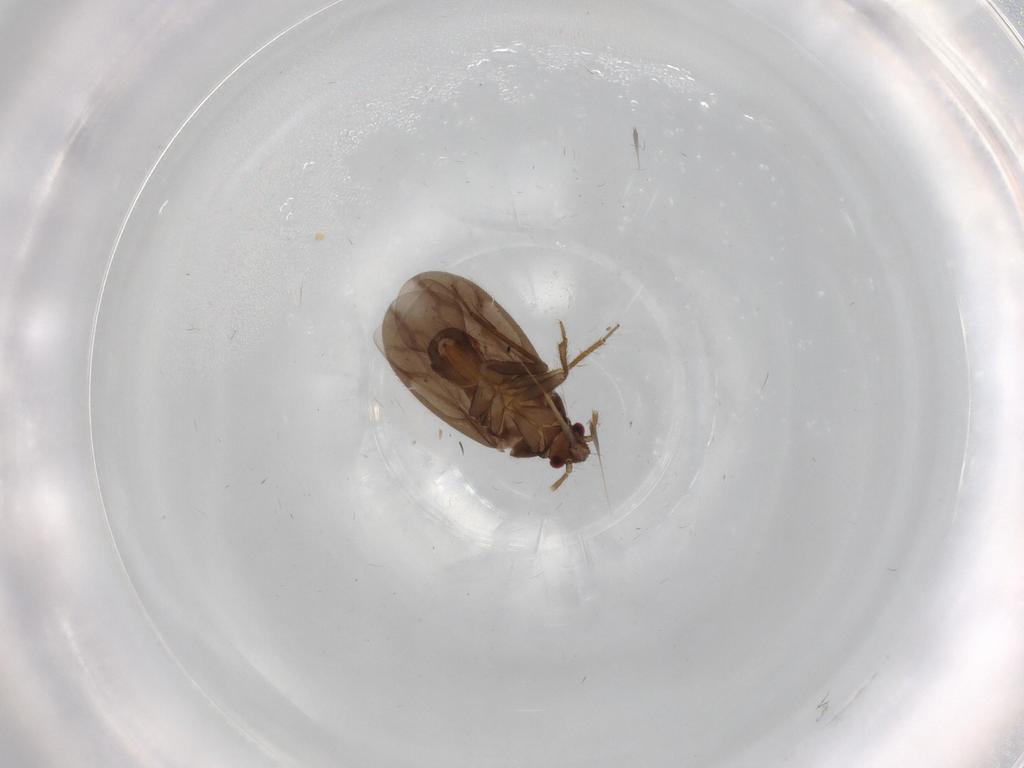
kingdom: Animalia
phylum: Arthropoda
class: Insecta
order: Hemiptera
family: Ceratocombidae
